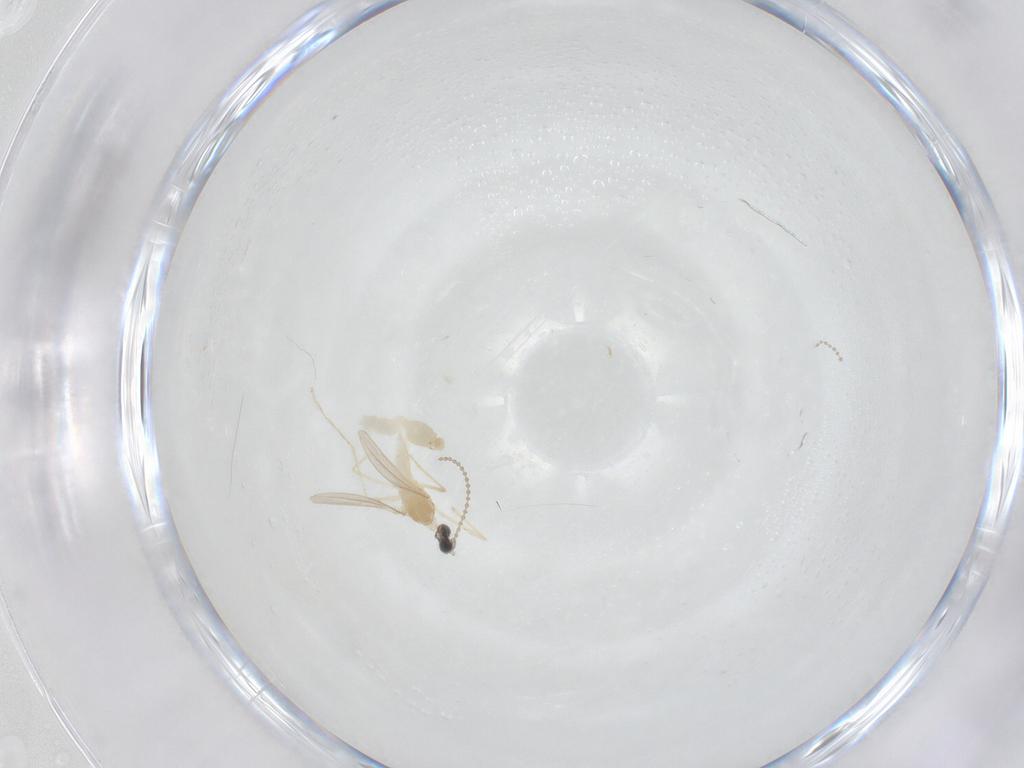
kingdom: Animalia
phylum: Arthropoda
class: Insecta
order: Diptera
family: Cecidomyiidae
